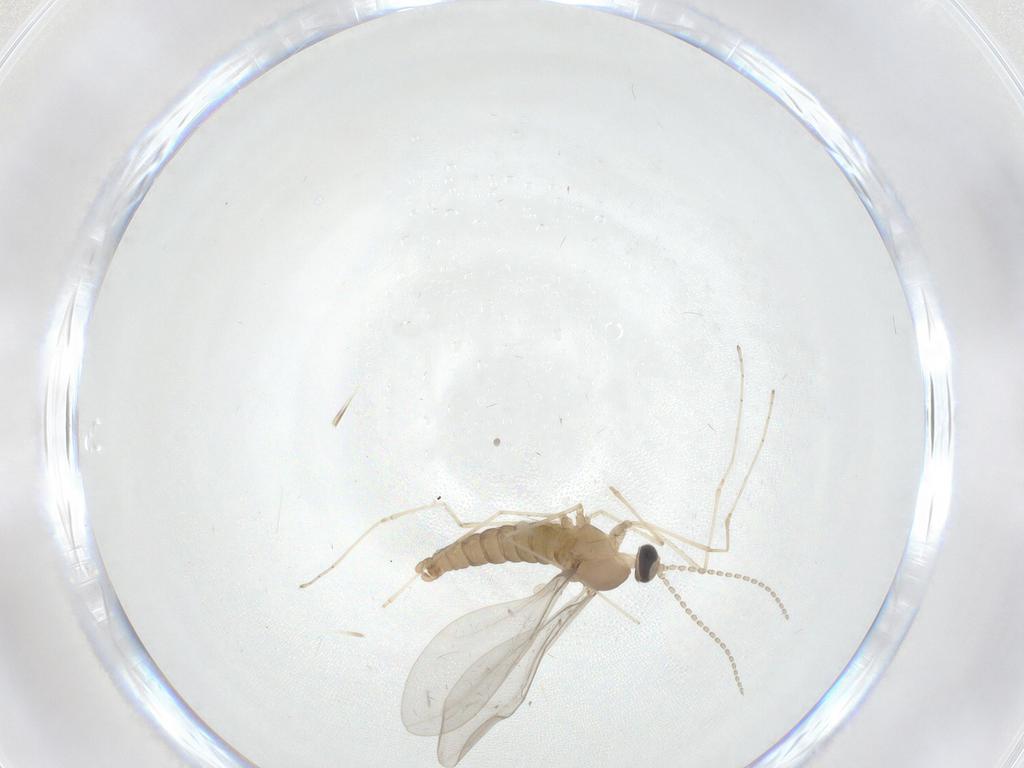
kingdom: Animalia
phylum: Arthropoda
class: Insecta
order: Diptera
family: Cecidomyiidae
